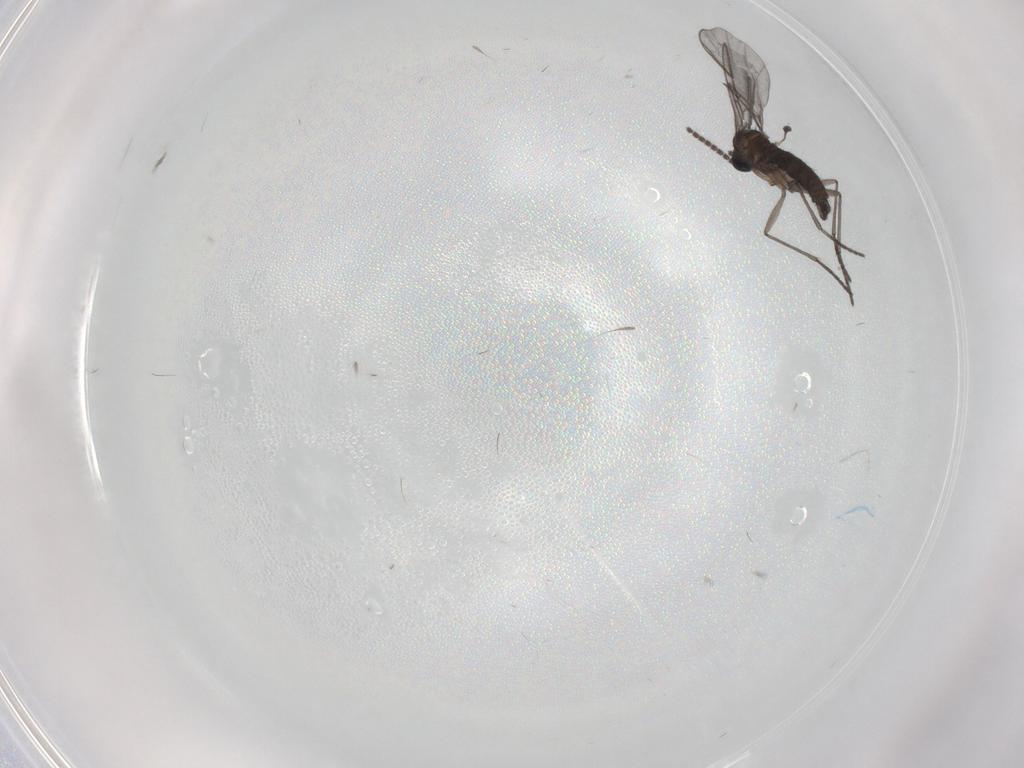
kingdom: Animalia
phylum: Arthropoda
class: Insecta
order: Diptera
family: Sciaridae
